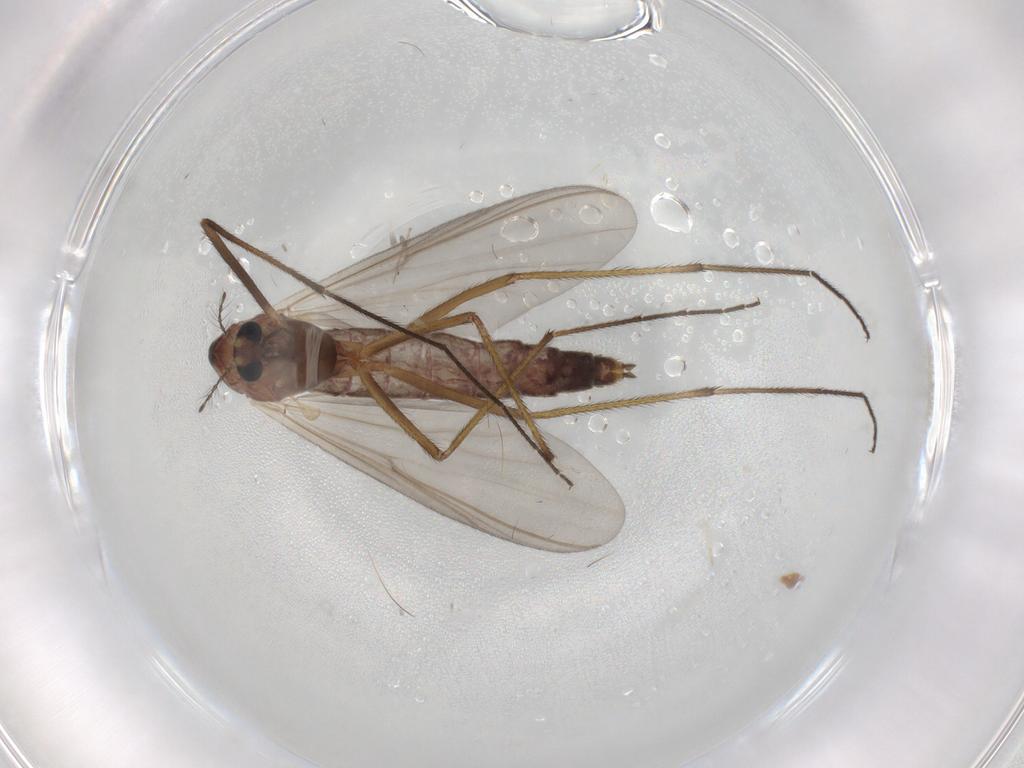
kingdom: Animalia
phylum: Arthropoda
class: Insecta
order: Diptera
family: Chironomidae
